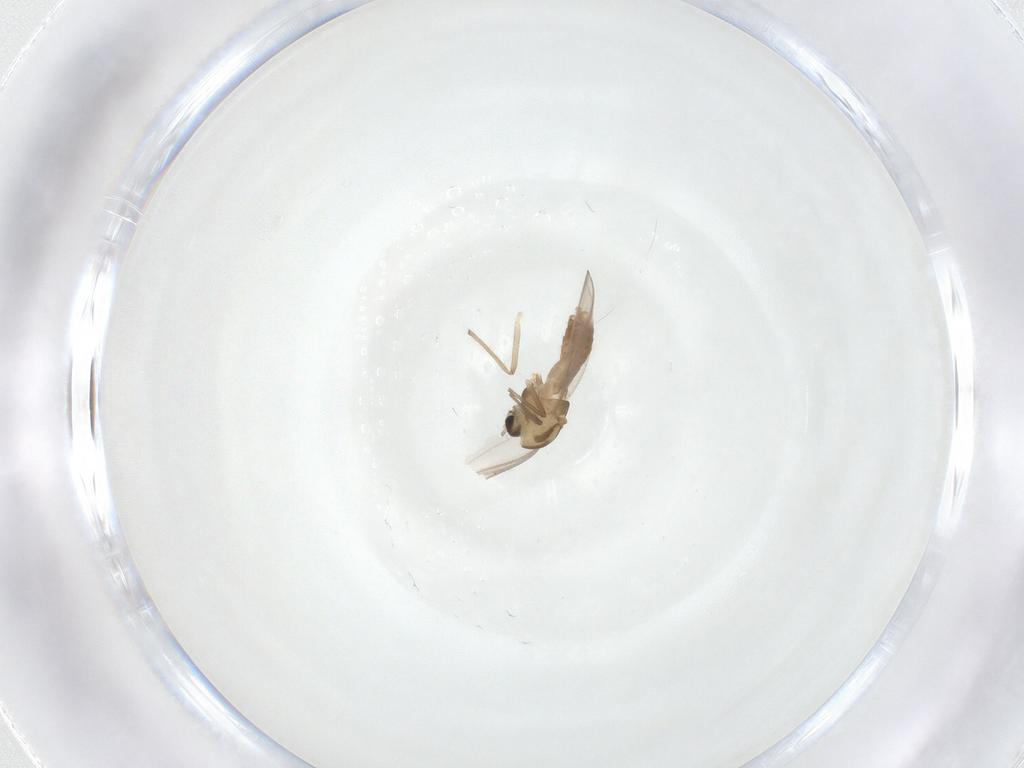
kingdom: Animalia
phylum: Arthropoda
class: Insecta
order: Diptera
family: Chironomidae
